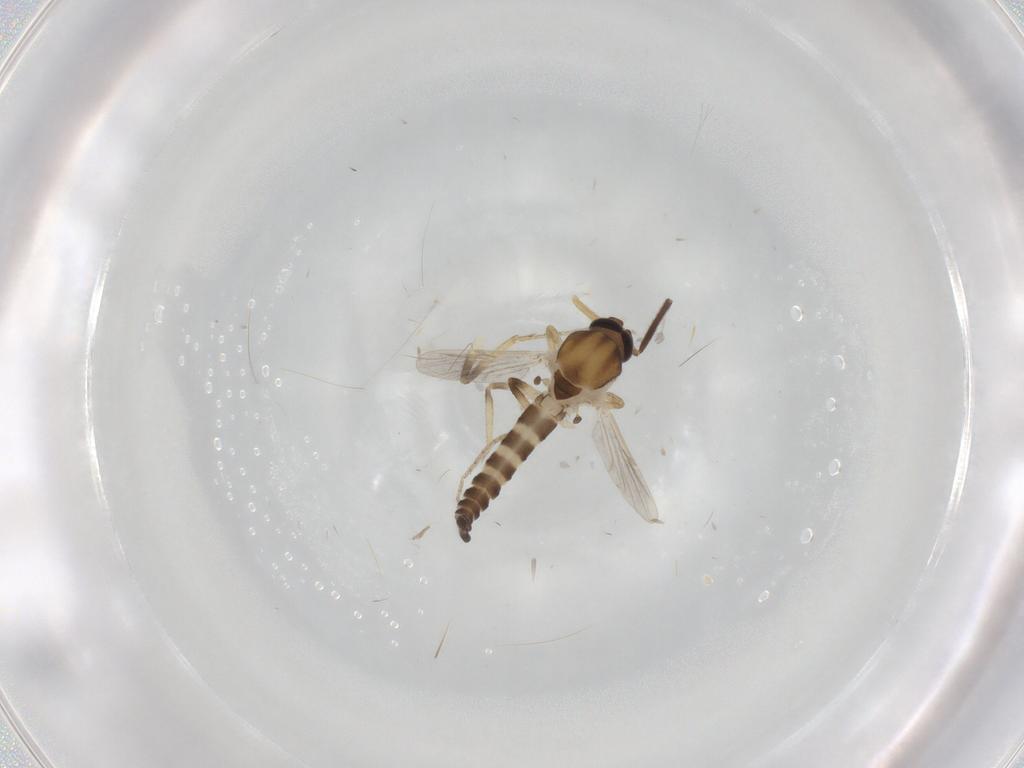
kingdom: Animalia
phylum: Arthropoda
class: Insecta
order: Diptera
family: Ceratopogonidae
